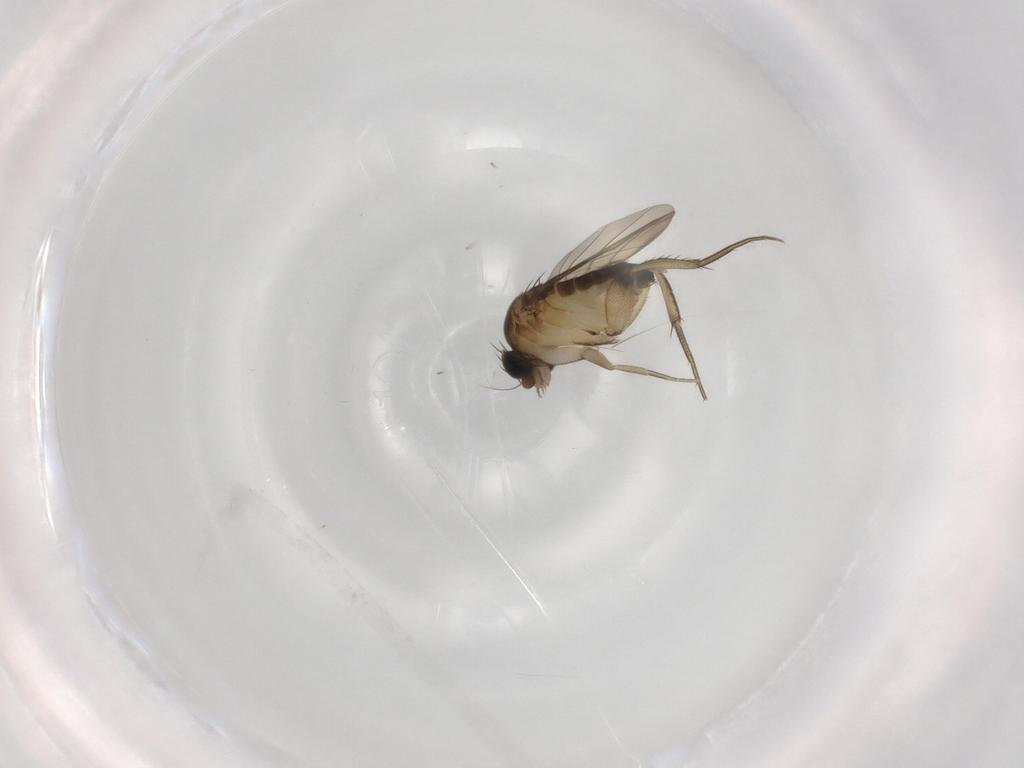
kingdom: Animalia
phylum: Arthropoda
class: Insecta
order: Diptera
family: Phoridae
